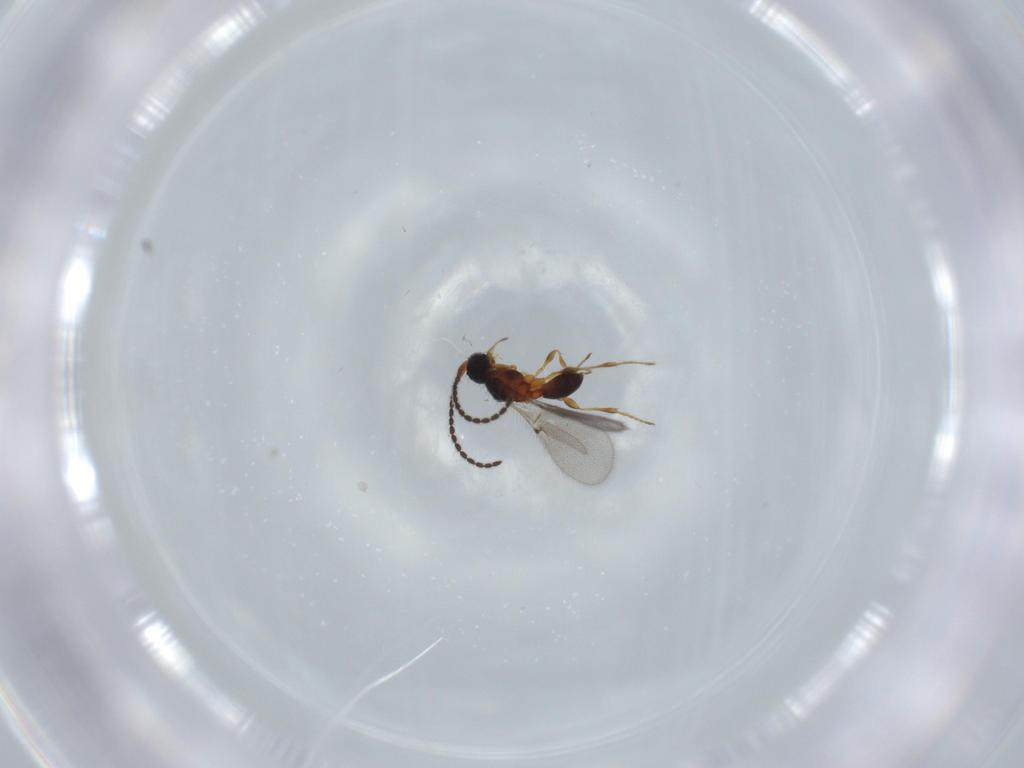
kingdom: Animalia
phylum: Arthropoda
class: Insecta
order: Hymenoptera
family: Diapriidae
